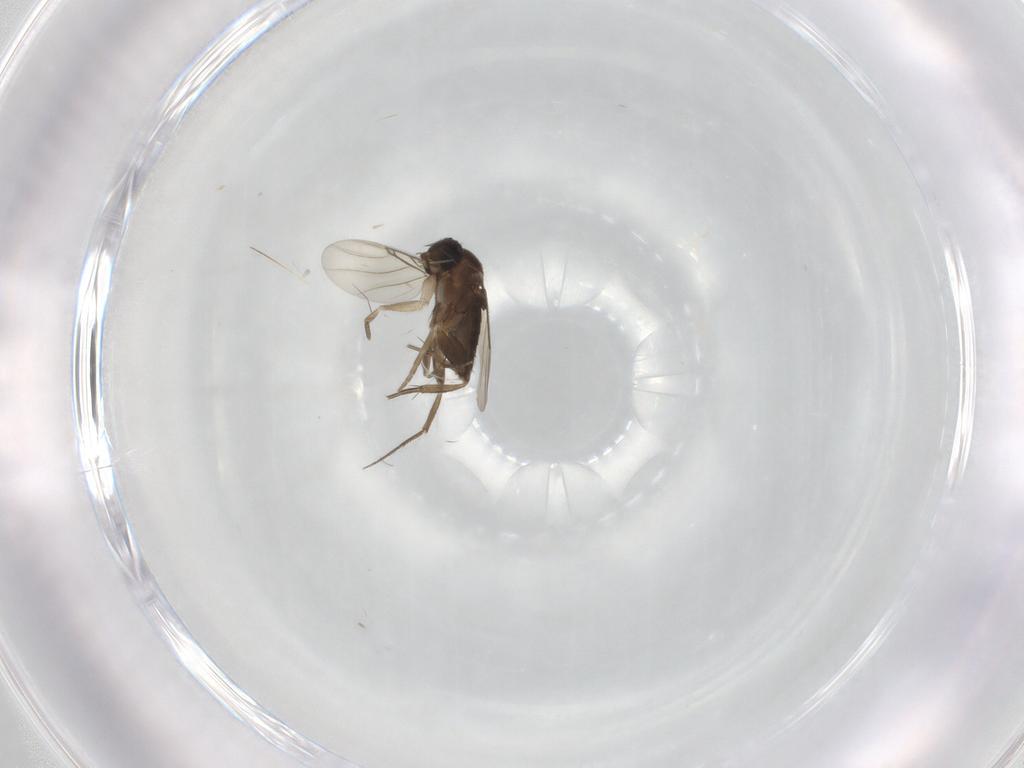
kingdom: Animalia
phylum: Arthropoda
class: Insecta
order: Diptera
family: Phoridae
